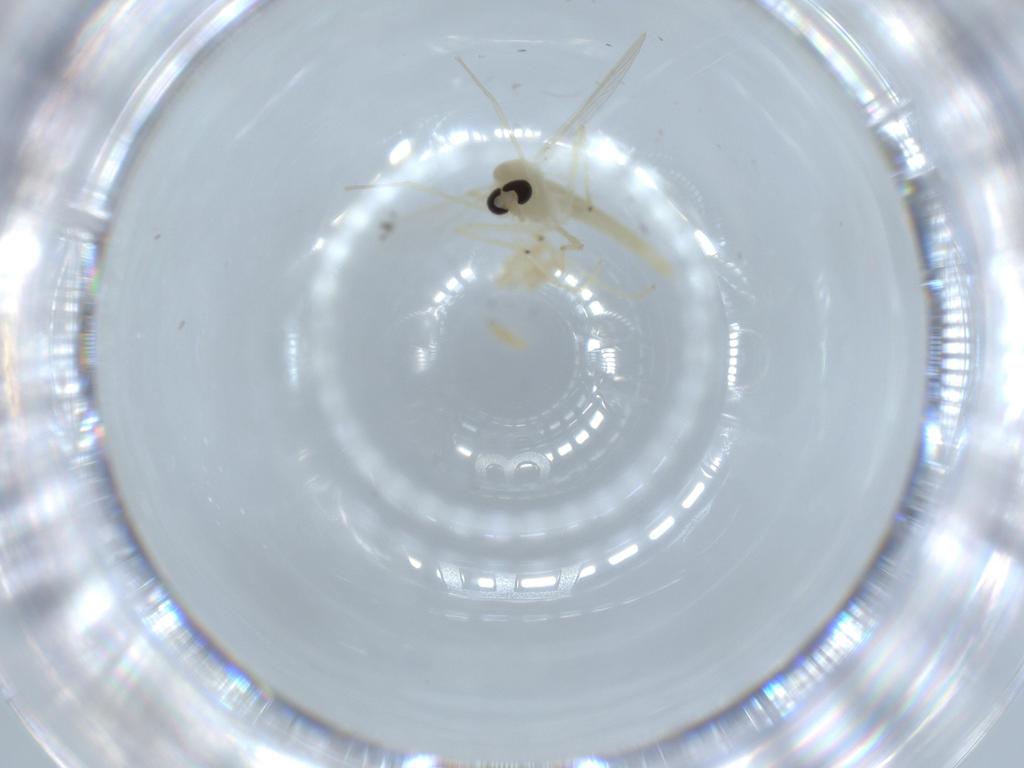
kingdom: Animalia
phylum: Arthropoda
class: Insecta
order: Diptera
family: Chironomidae
